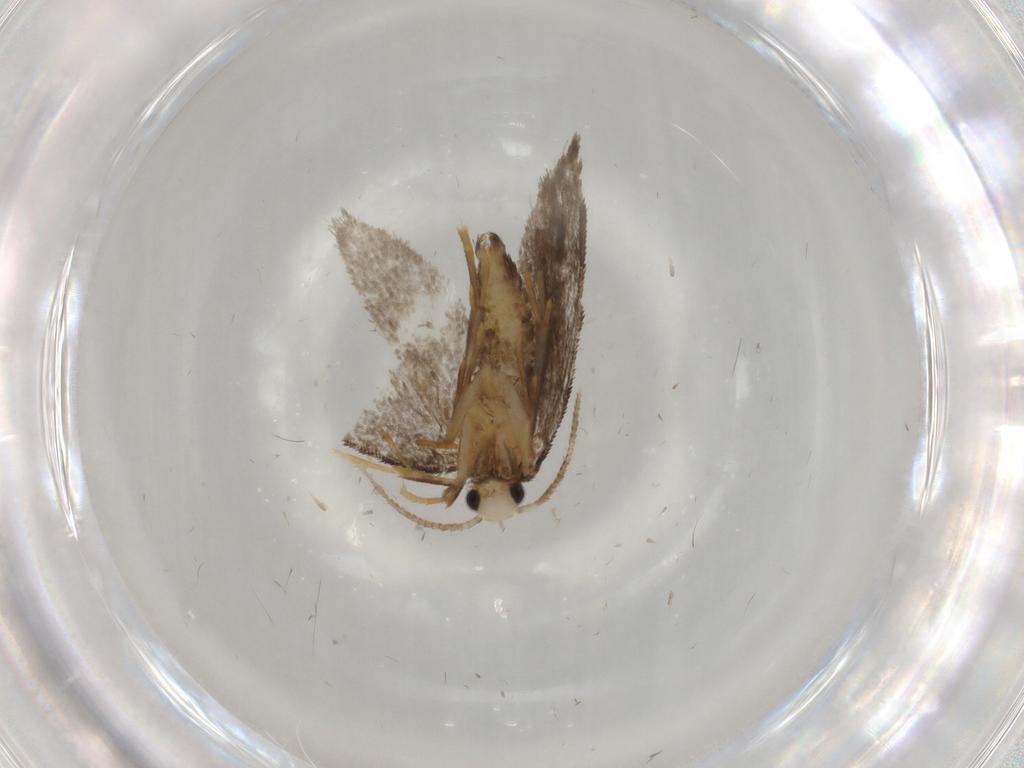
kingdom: Animalia
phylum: Arthropoda
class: Insecta
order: Lepidoptera
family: Psychidae
